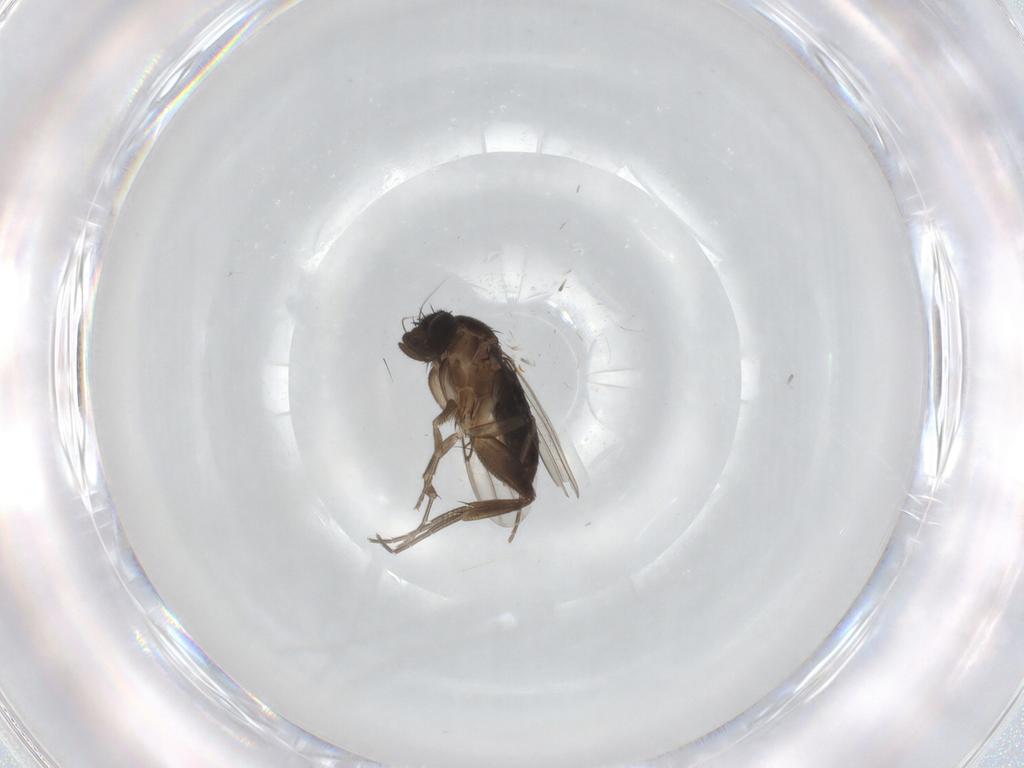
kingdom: Animalia
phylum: Arthropoda
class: Insecta
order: Diptera
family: Phoridae
